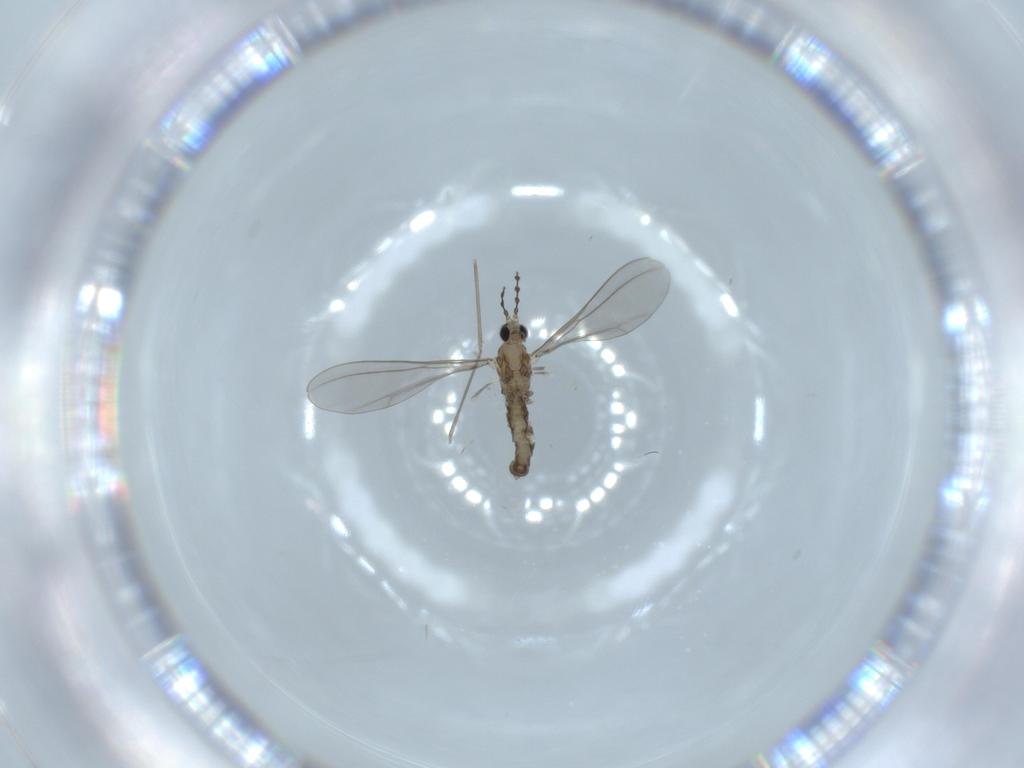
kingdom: Animalia
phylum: Arthropoda
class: Insecta
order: Diptera
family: Cecidomyiidae
